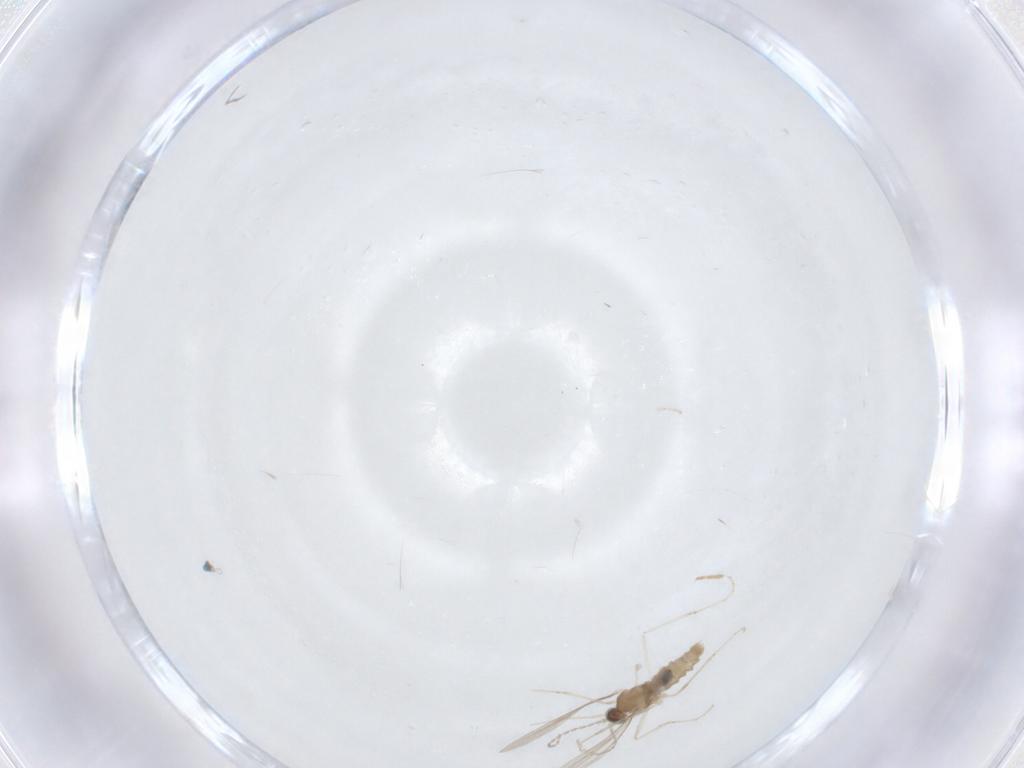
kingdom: Animalia
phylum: Arthropoda
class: Insecta
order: Diptera
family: Cecidomyiidae
